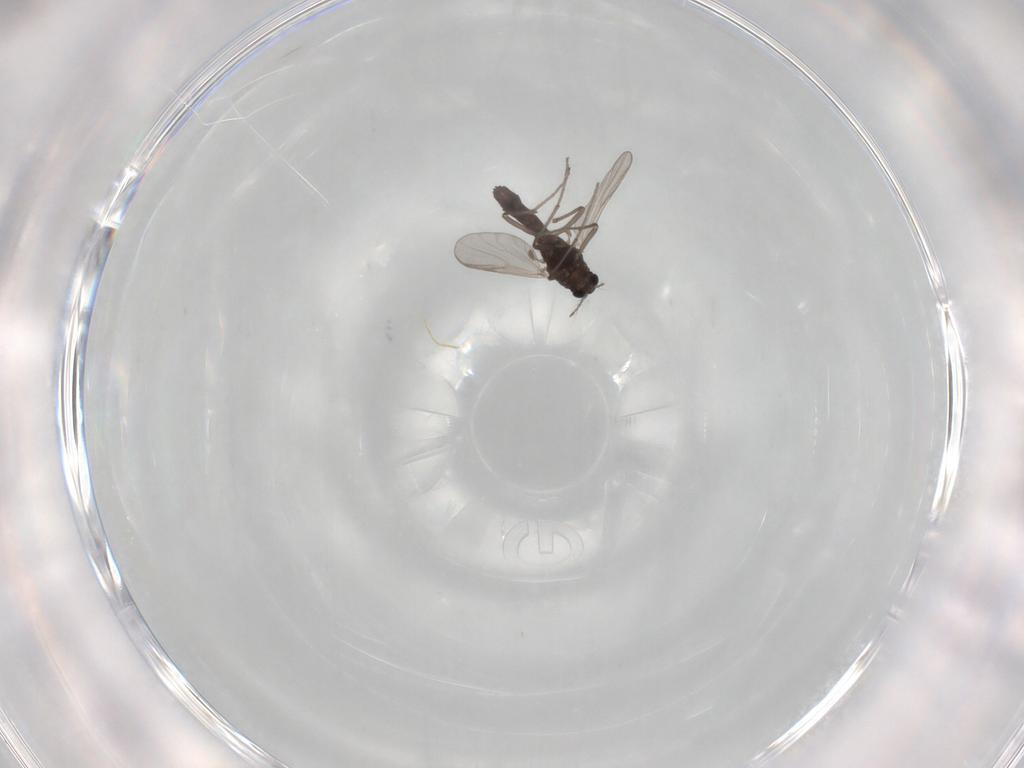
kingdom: Animalia
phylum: Arthropoda
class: Insecta
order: Diptera
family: Chironomidae
